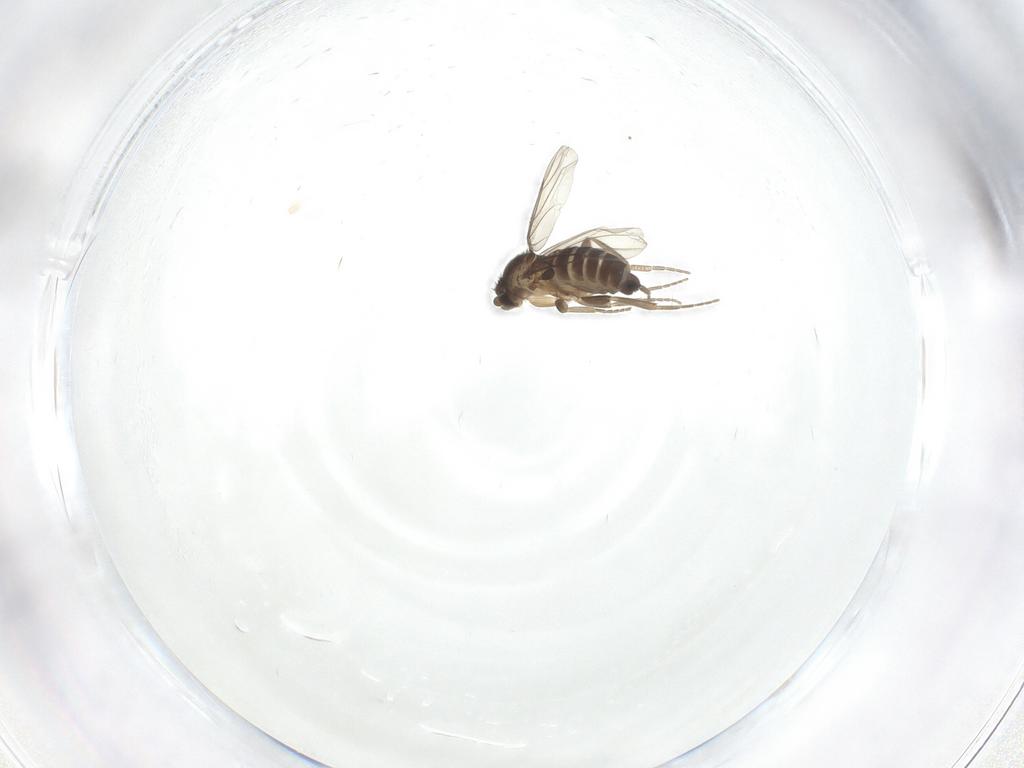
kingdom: Animalia
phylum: Arthropoda
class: Insecta
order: Diptera
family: Phoridae
